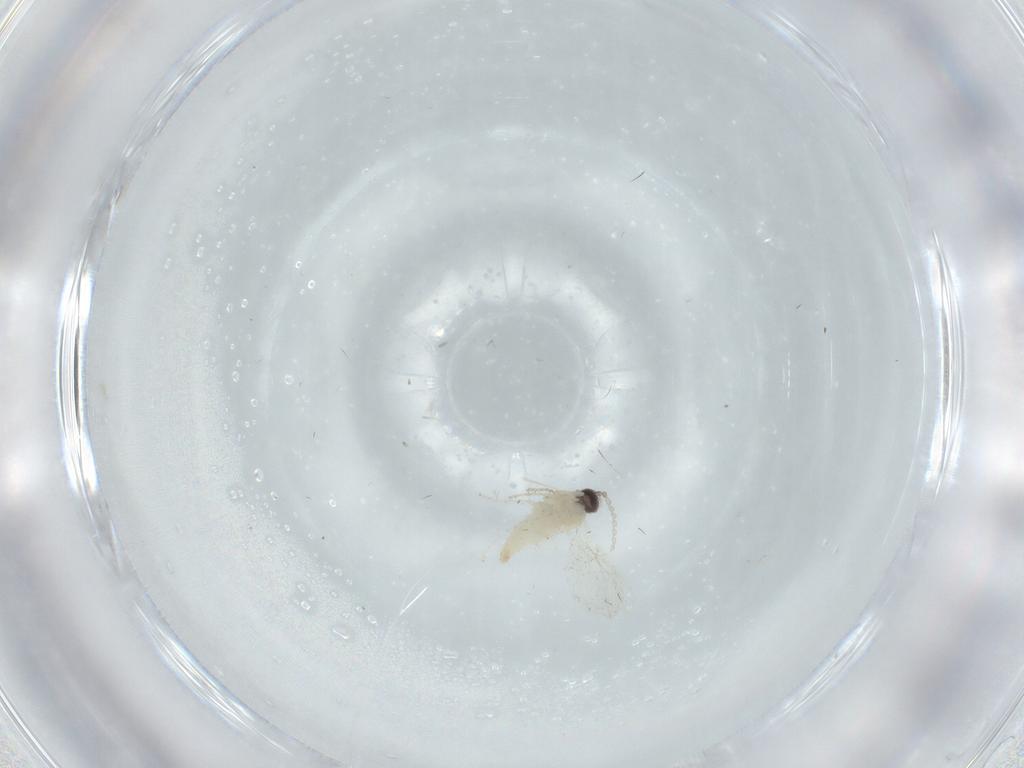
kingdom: Animalia
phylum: Arthropoda
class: Insecta
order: Diptera
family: Cecidomyiidae
